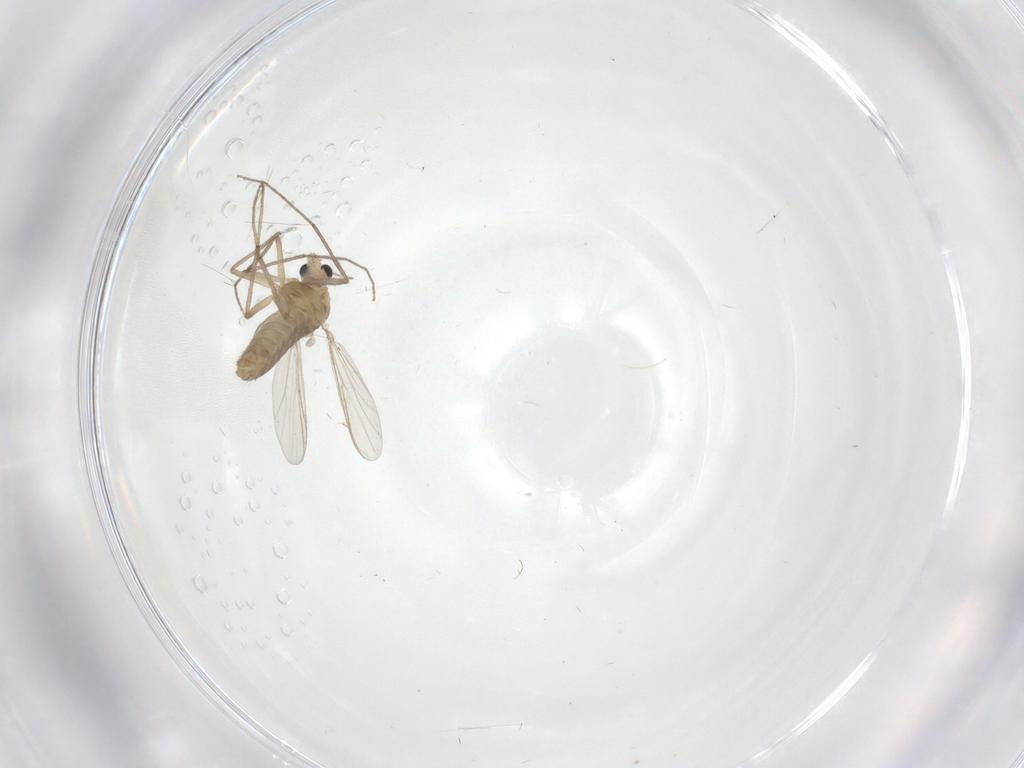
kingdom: Animalia
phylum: Arthropoda
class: Insecta
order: Diptera
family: Chironomidae
